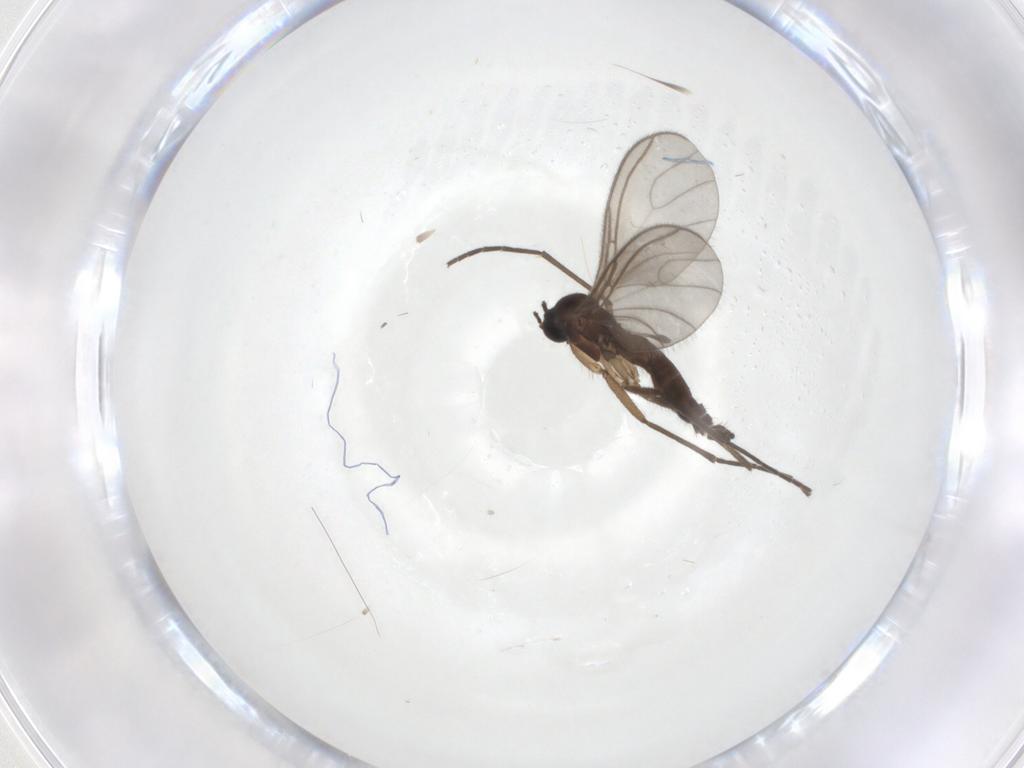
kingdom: Animalia
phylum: Arthropoda
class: Insecta
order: Diptera
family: Sciaridae
